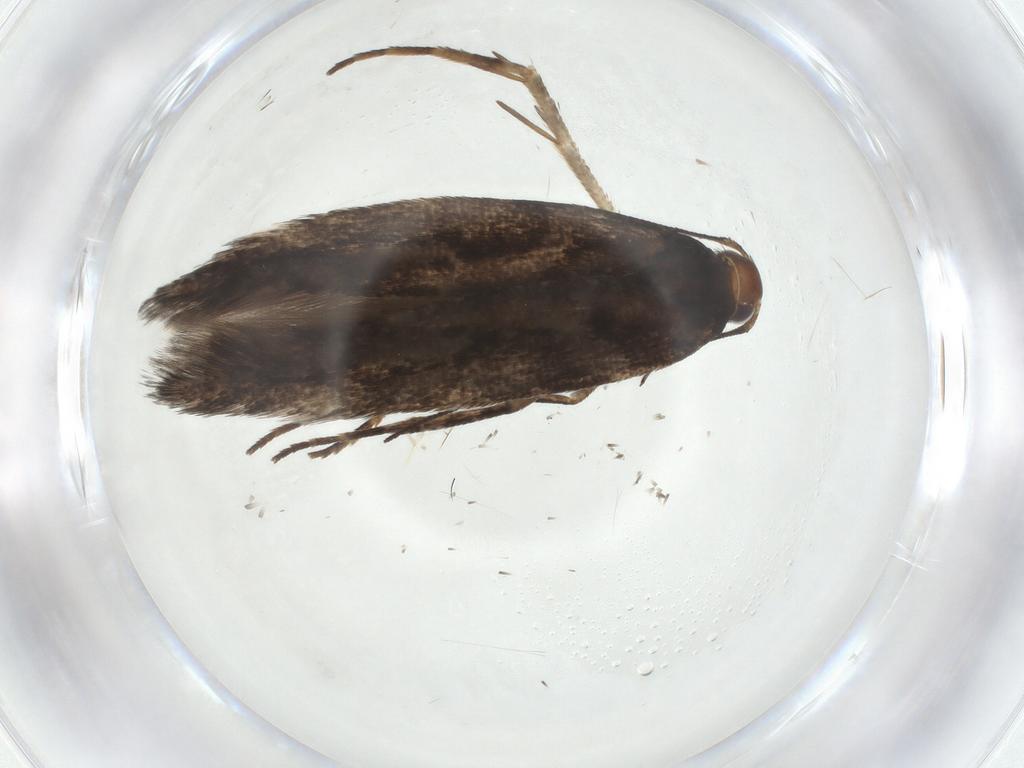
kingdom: Animalia
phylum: Arthropoda
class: Insecta
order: Lepidoptera
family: Gelechiidae
